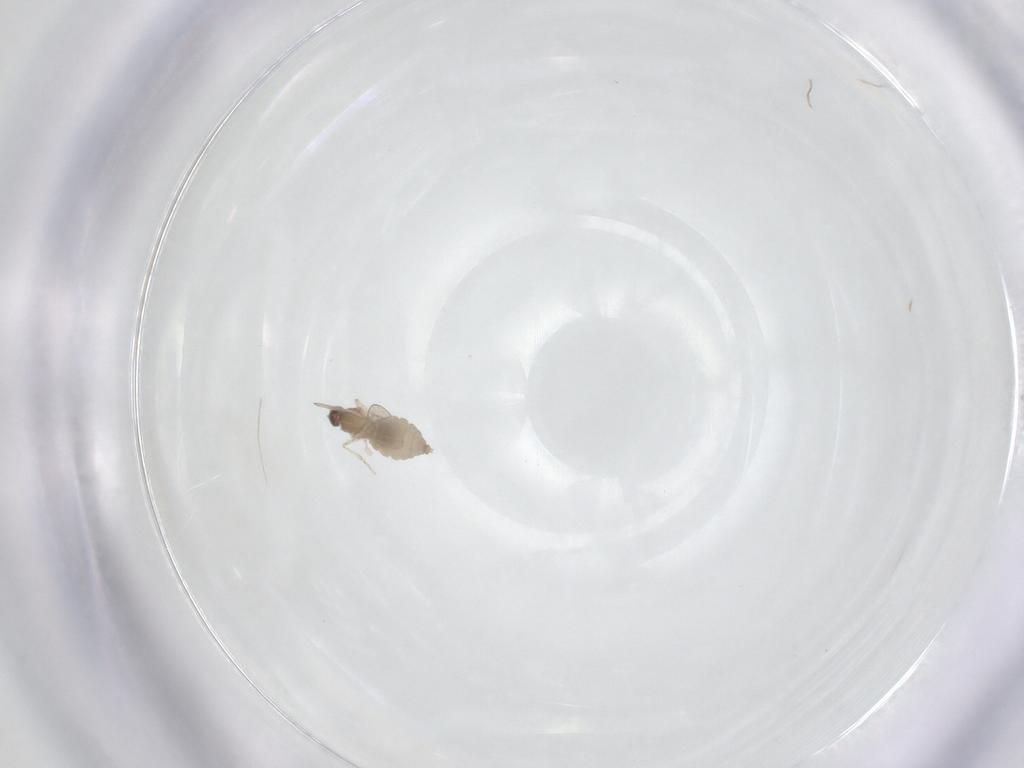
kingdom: Animalia
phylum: Arthropoda
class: Insecta
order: Diptera
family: Cecidomyiidae
